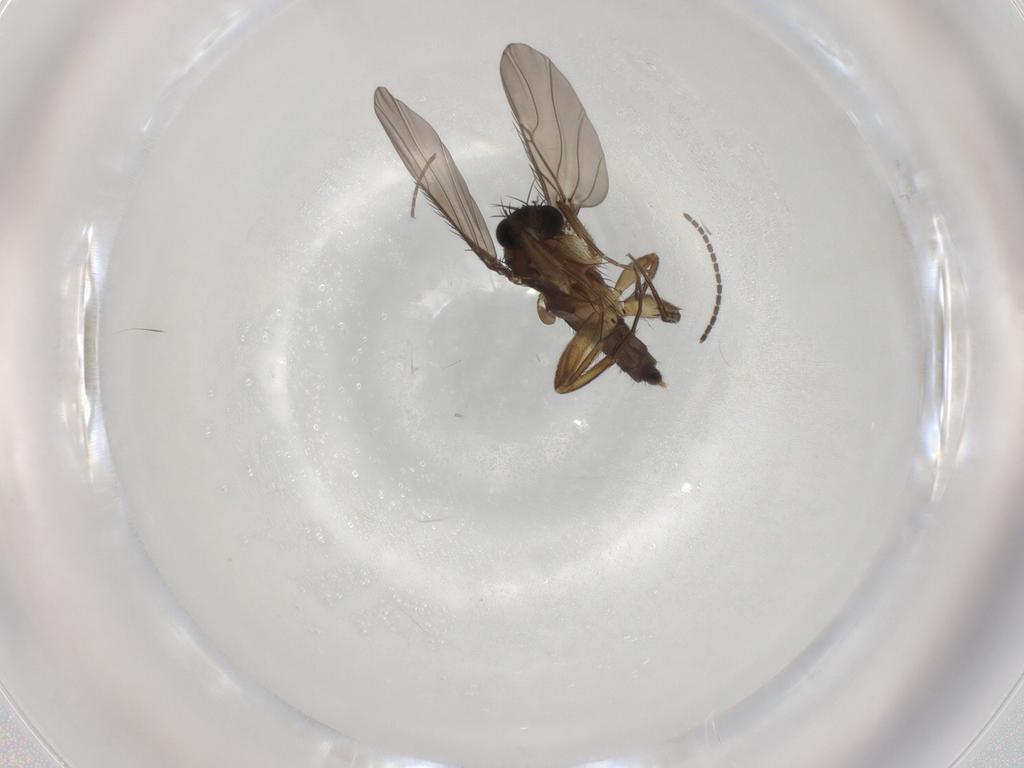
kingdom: Animalia
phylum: Arthropoda
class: Insecta
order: Diptera
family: Phoridae
